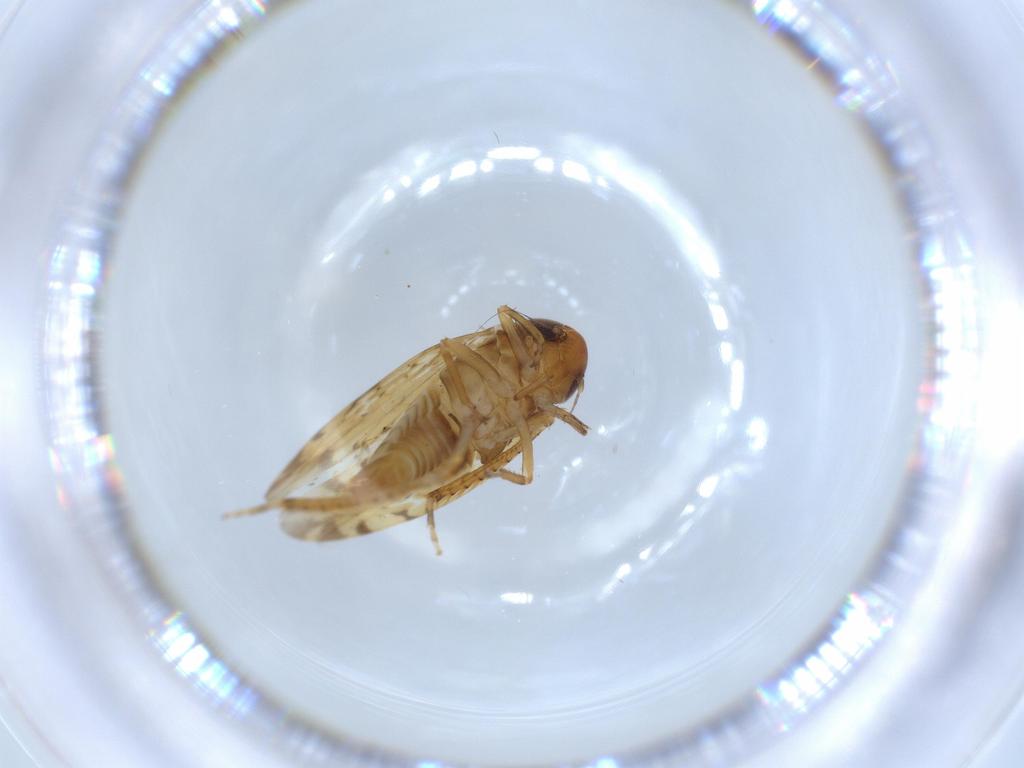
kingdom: Animalia
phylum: Arthropoda
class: Insecta
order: Hemiptera
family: Cicadellidae
